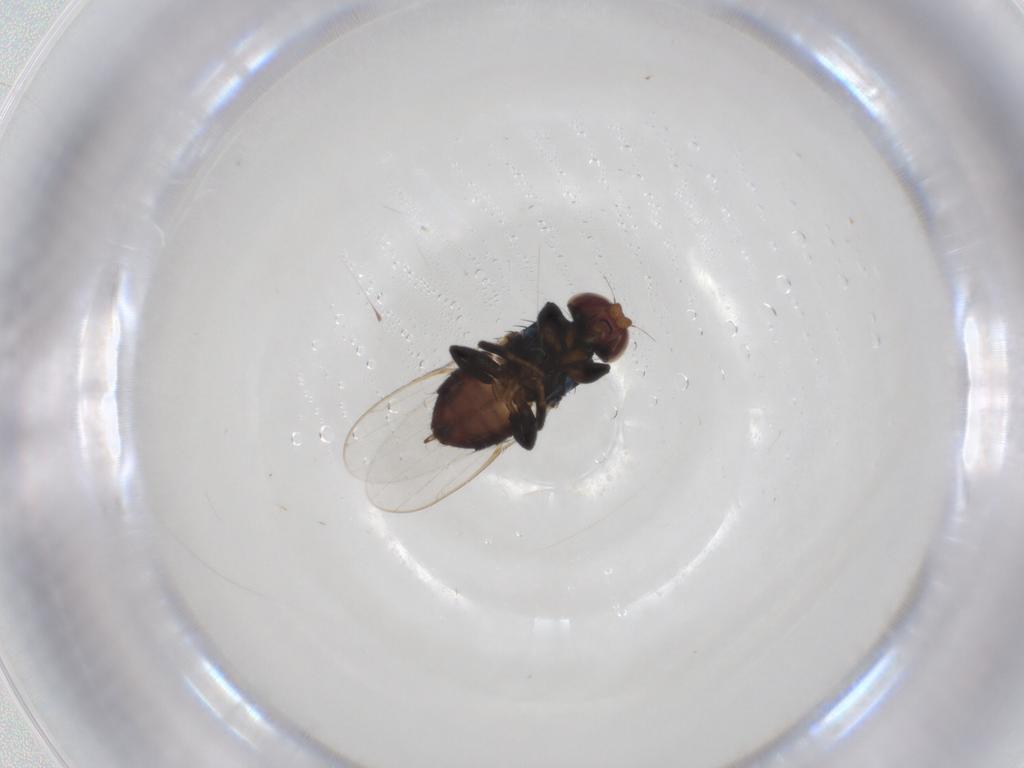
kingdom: Animalia
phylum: Arthropoda
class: Insecta
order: Diptera
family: Chloropidae
